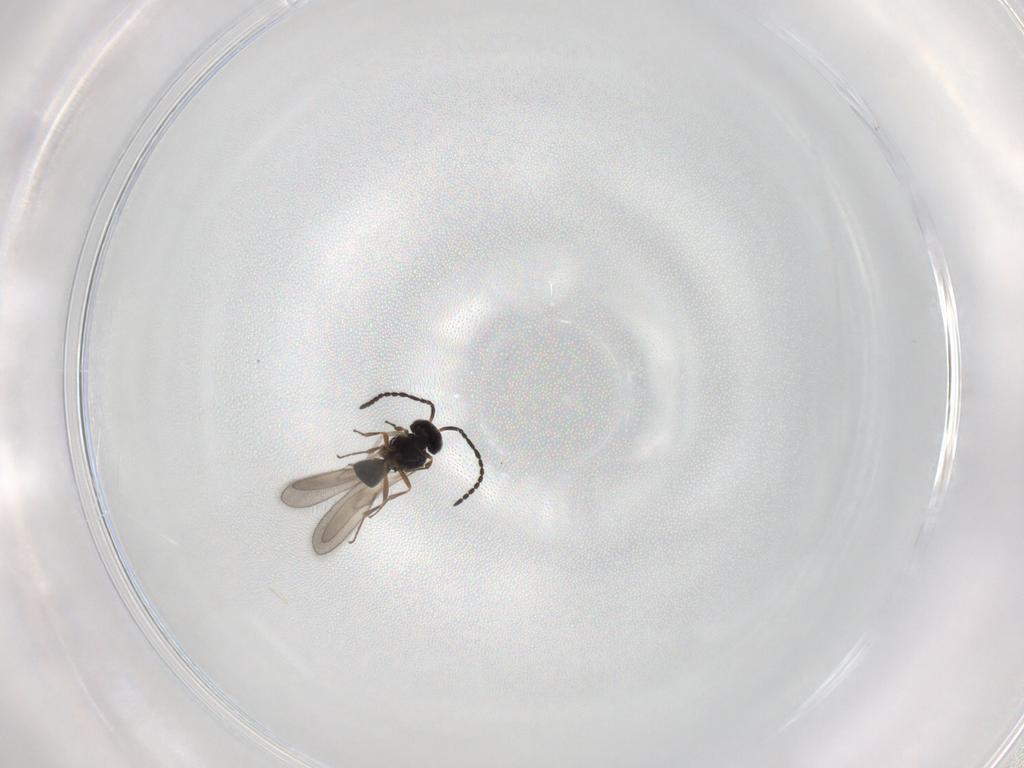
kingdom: Animalia
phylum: Arthropoda
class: Insecta
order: Hymenoptera
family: Scelionidae
